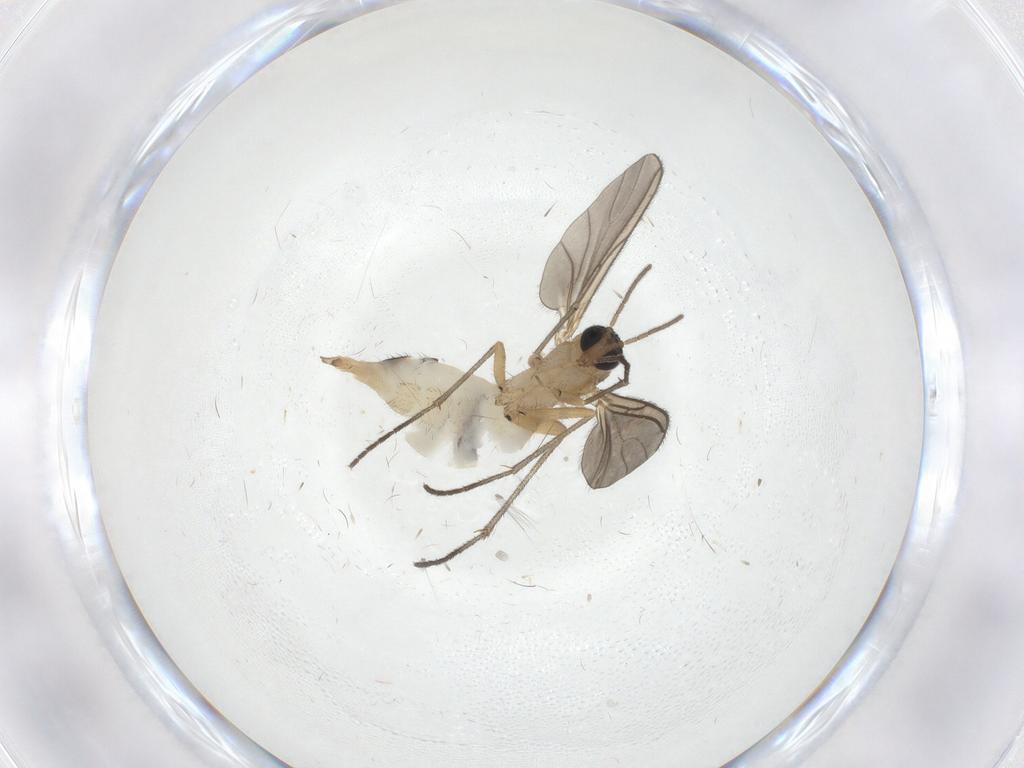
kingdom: Animalia
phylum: Arthropoda
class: Insecta
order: Diptera
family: Sciaridae
